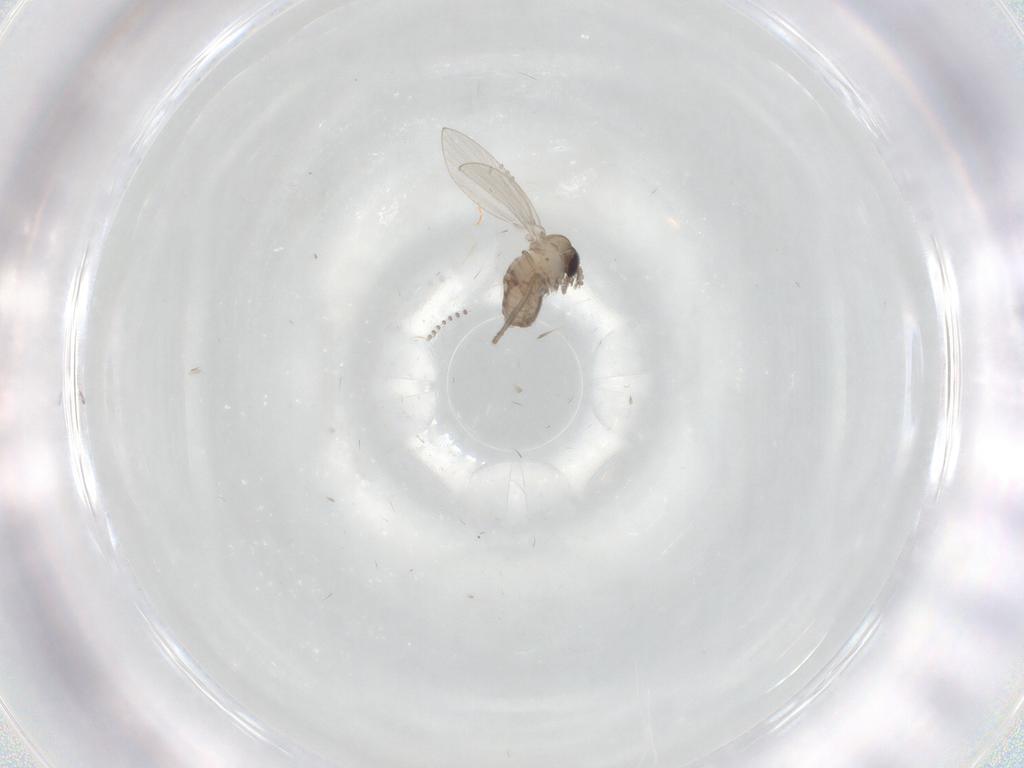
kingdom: Animalia
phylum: Arthropoda
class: Insecta
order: Diptera
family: Psychodidae
